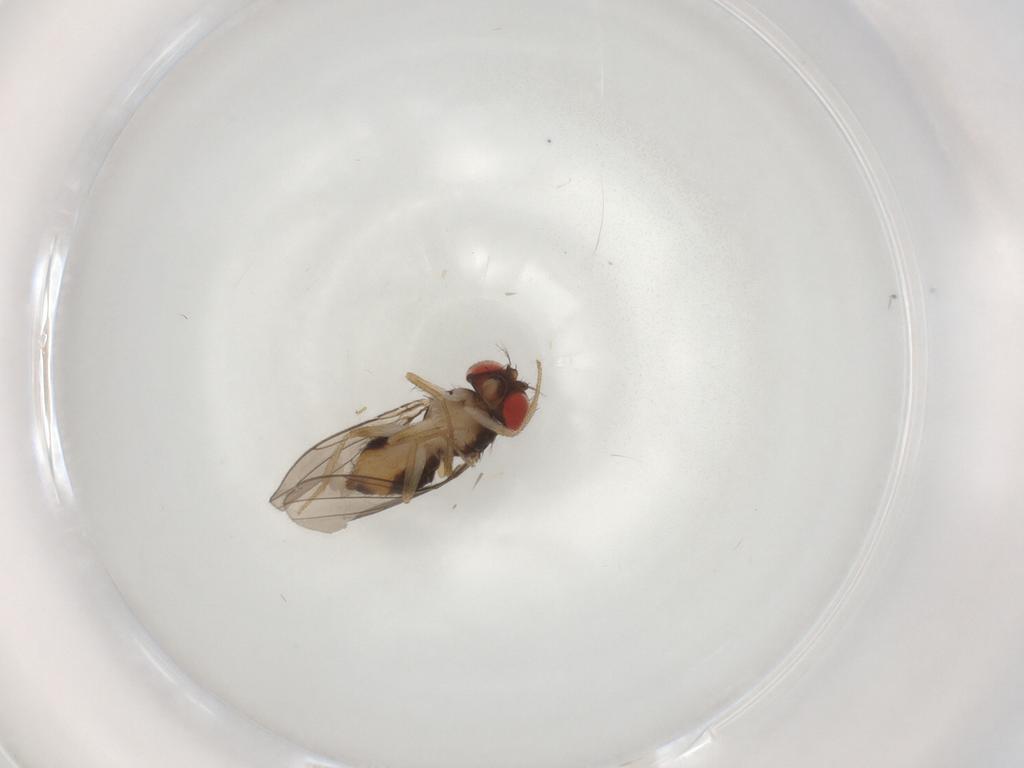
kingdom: Animalia
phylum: Arthropoda
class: Insecta
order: Diptera
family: Drosophilidae
